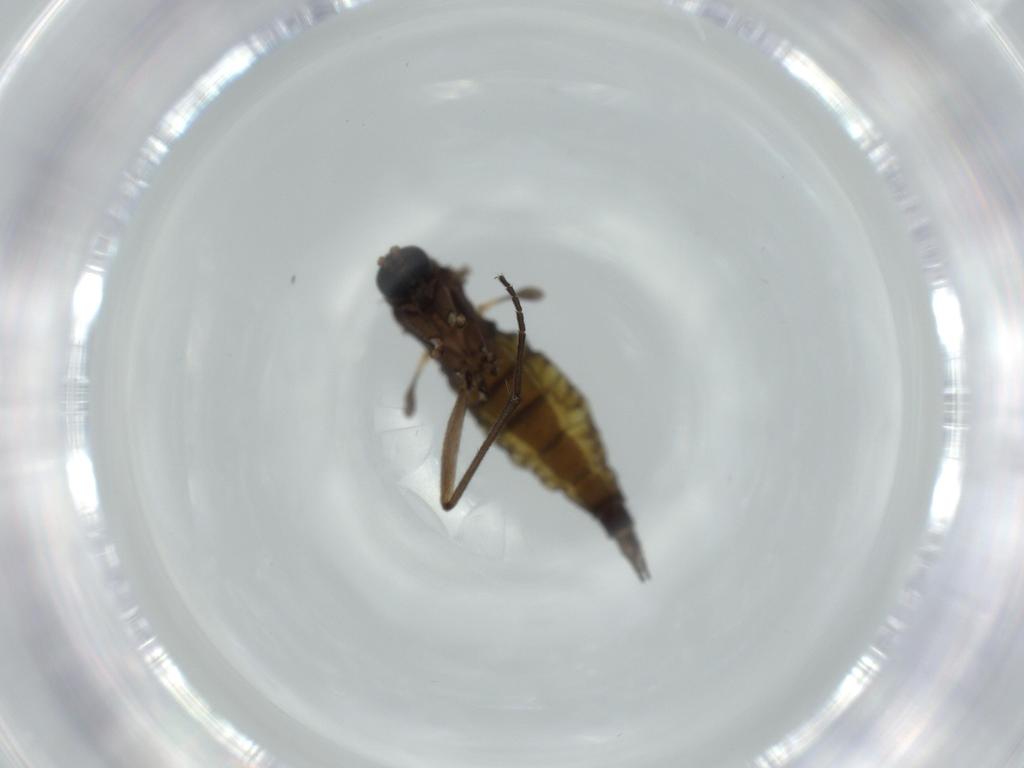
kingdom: Animalia
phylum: Arthropoda
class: Insecta
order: Diptera
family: Sciaridae
